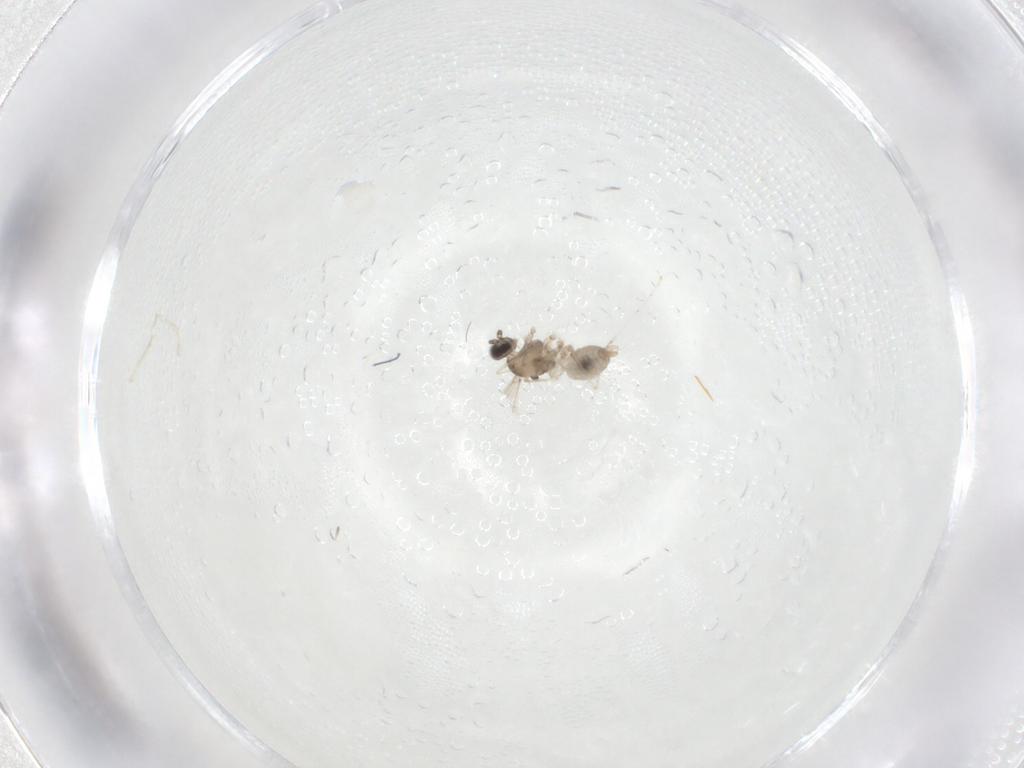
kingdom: Animalia
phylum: Arthropoda
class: Insecta
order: Diptera
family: Cecidomyiidae
